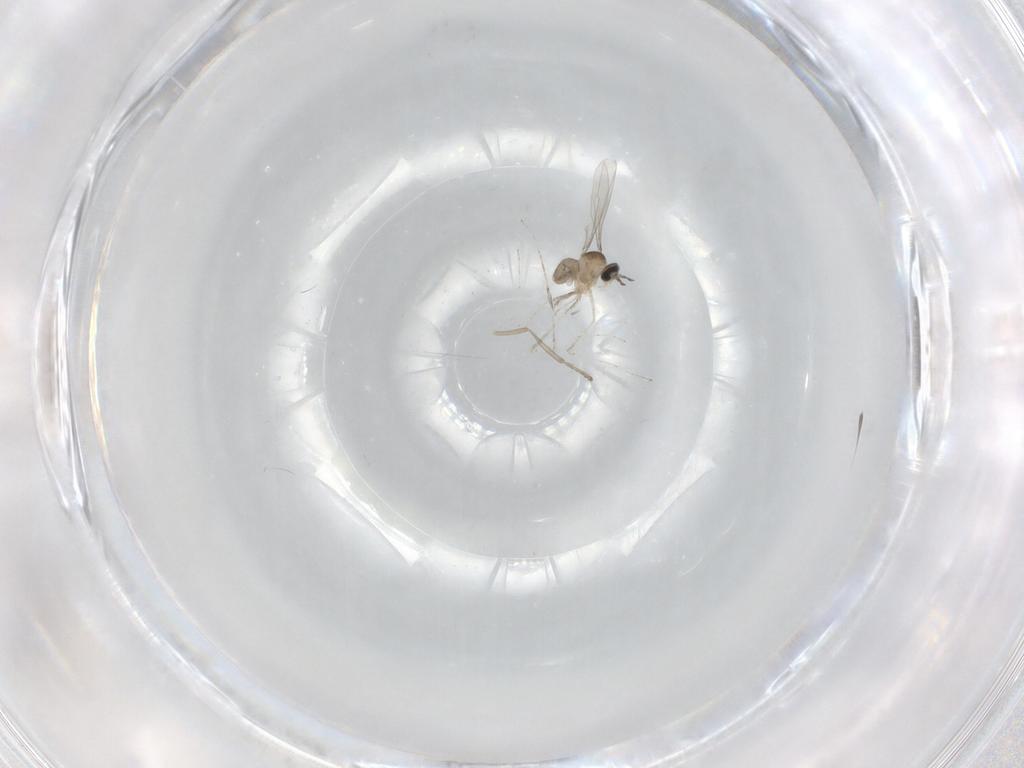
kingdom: Animalia
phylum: Arthropoda
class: Insecta
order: Diptera
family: Cecidomyiidae
